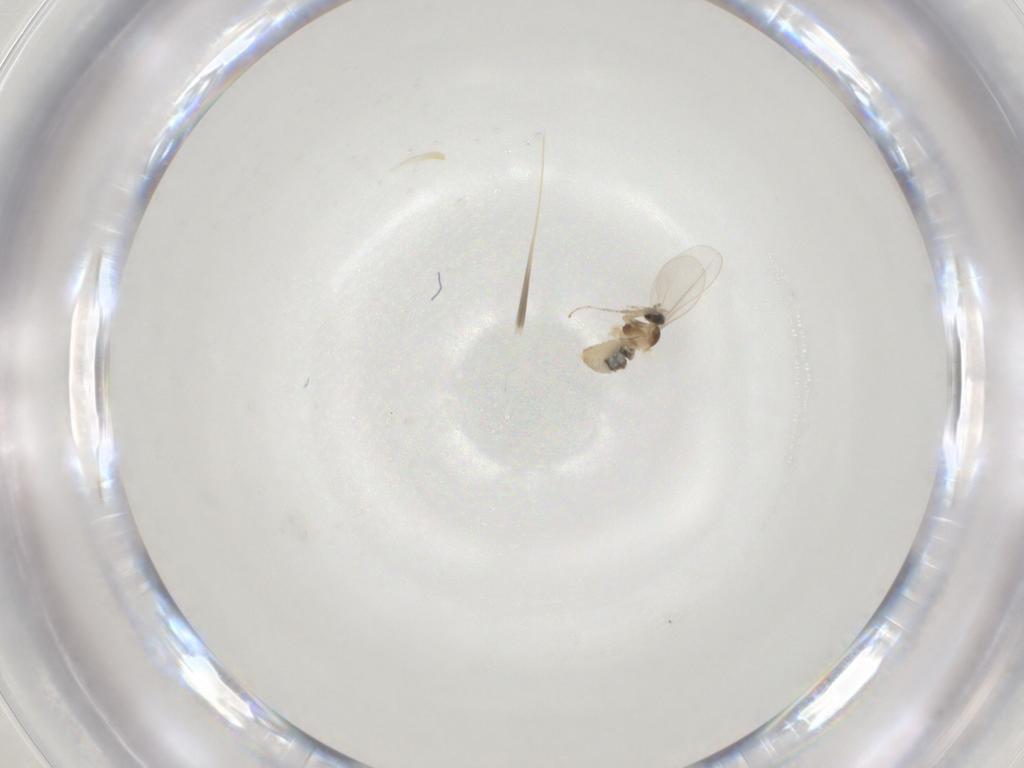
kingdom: Animalia
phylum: Arthropoda
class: Insecta
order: Diptera
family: Cecidomyiidae
